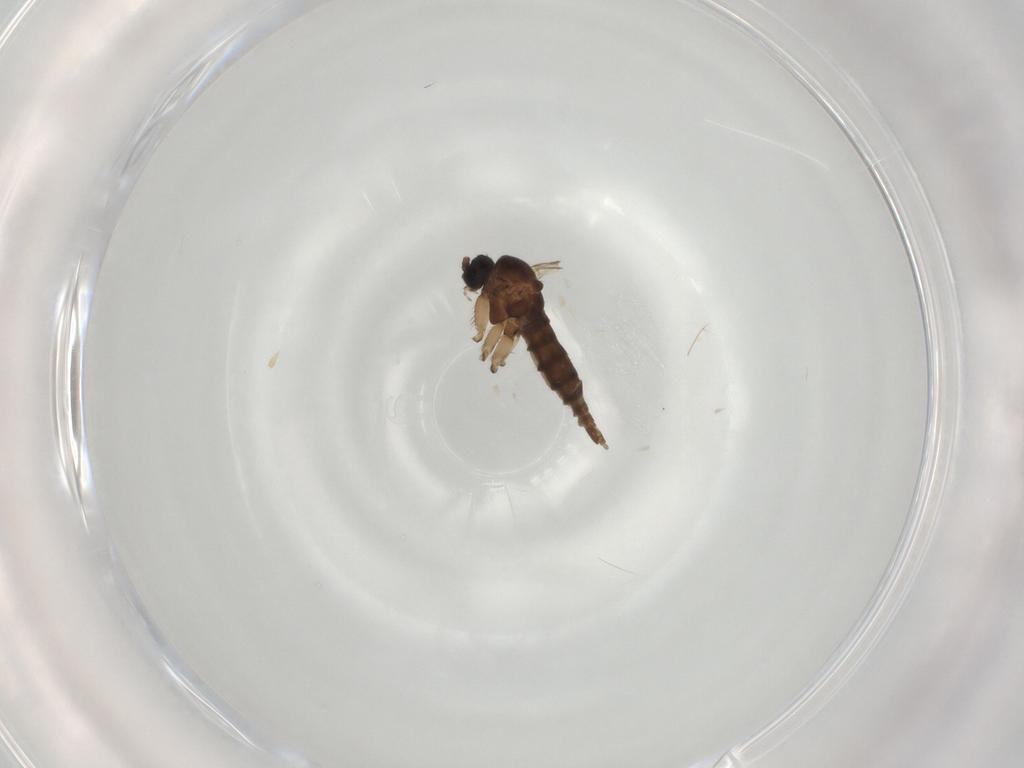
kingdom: Animalia
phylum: Arthropoda
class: Insecta
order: Diptera
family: Tabanidae
